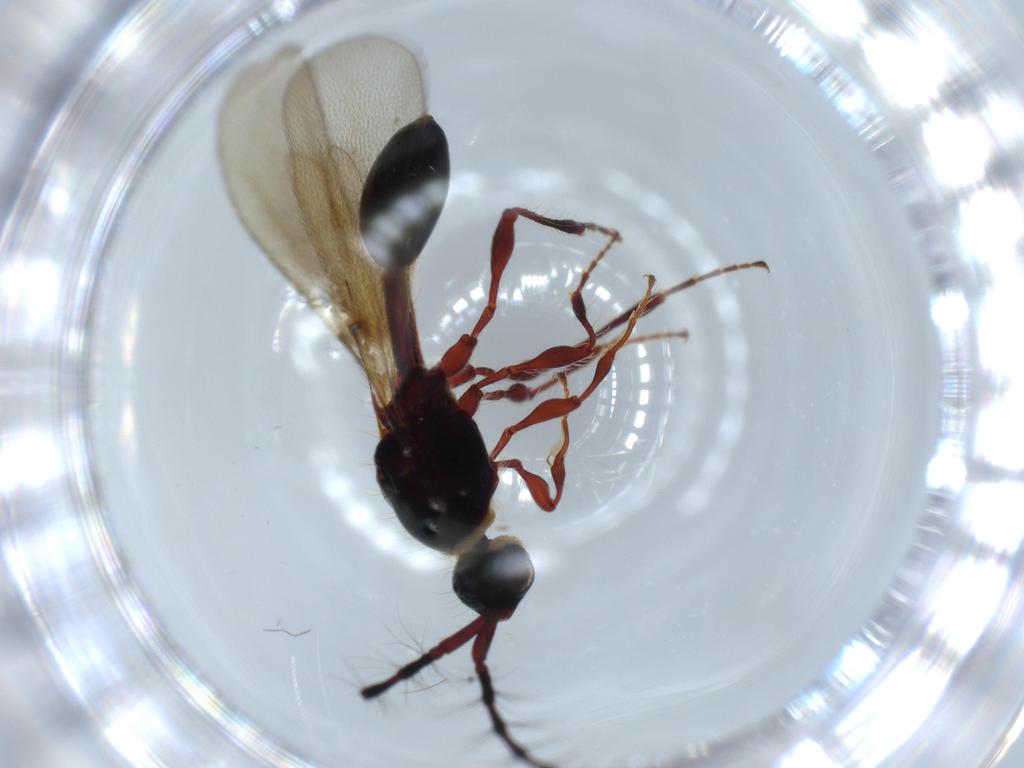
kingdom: Animalia
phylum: Arthropoda
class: Insecta
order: Hymenoptera
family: Diapriidae
